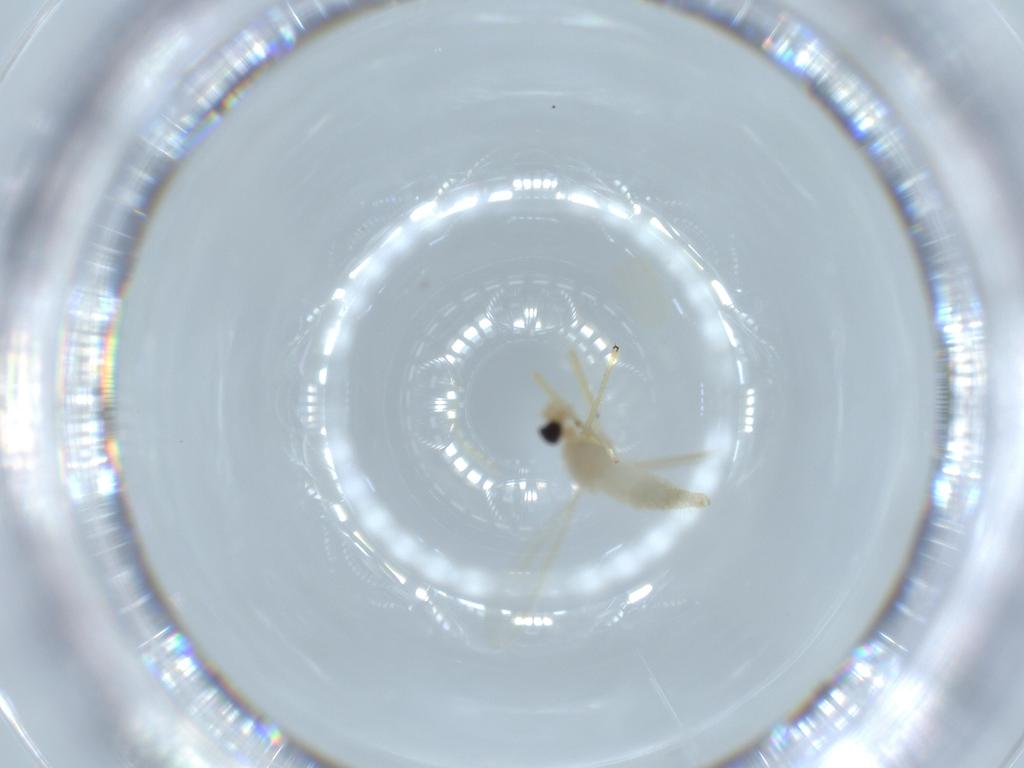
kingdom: Animalia
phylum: Arthropoda
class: Insecta
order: Diptera
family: Chironomidae
